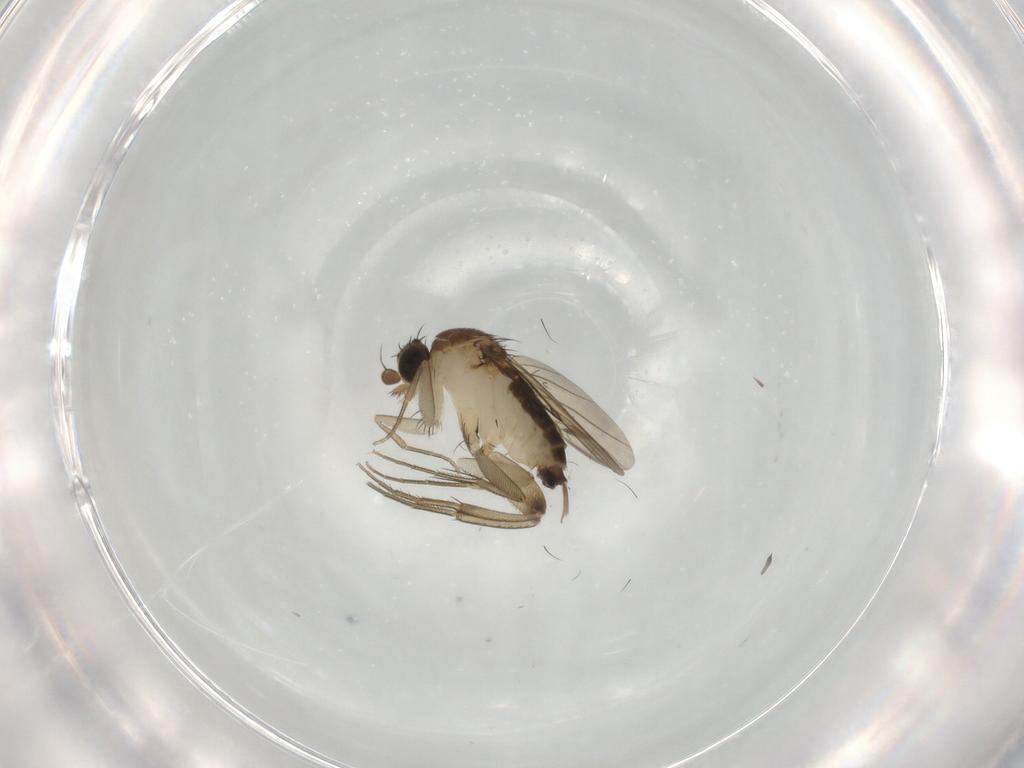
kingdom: Animalia
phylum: Arthropoda
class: Insecta
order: Diptera
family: Phoridae
